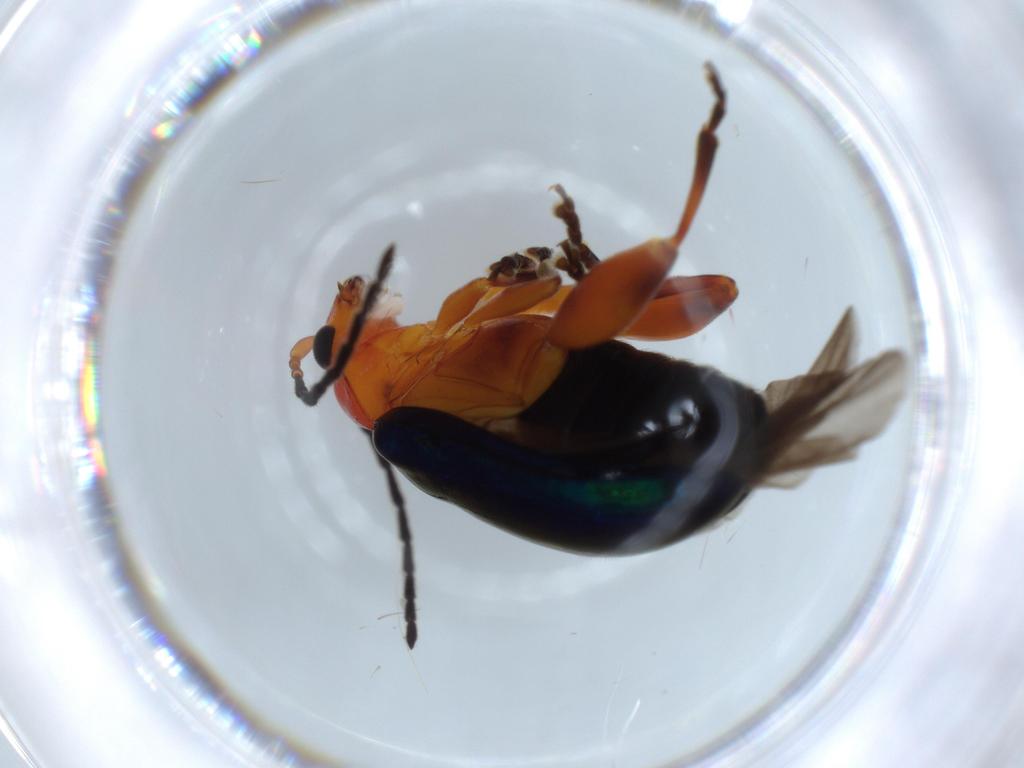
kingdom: Animalia
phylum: Arthropoda
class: Insecta
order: Coleoptera
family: Chrysomelidae
